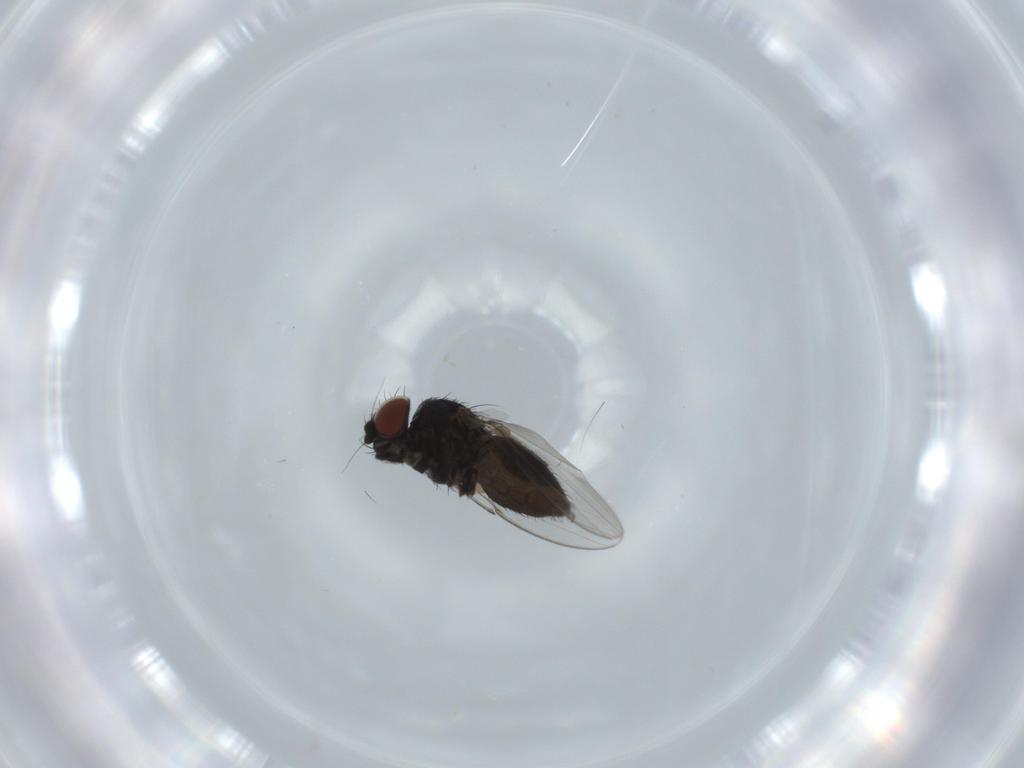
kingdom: Animalia
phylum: Arthropoda
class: Insecta
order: Diptera
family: Milichiidae
